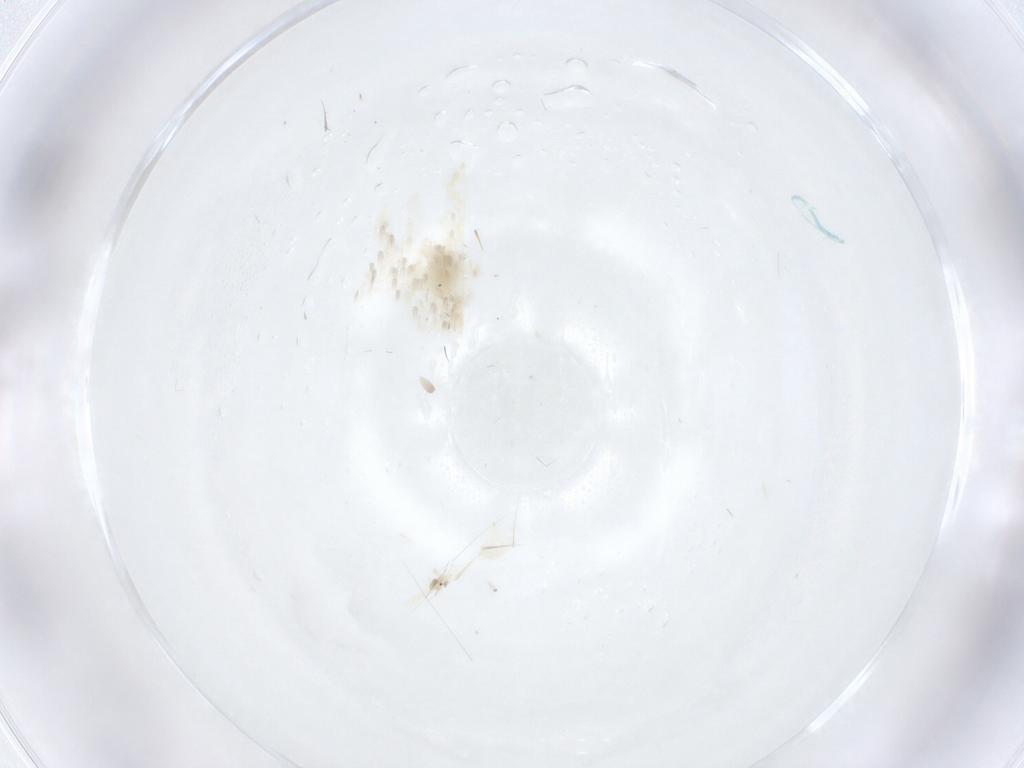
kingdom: Animalia
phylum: Arthropoda
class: Arachnida
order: Trombidiformes
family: Anystidae
